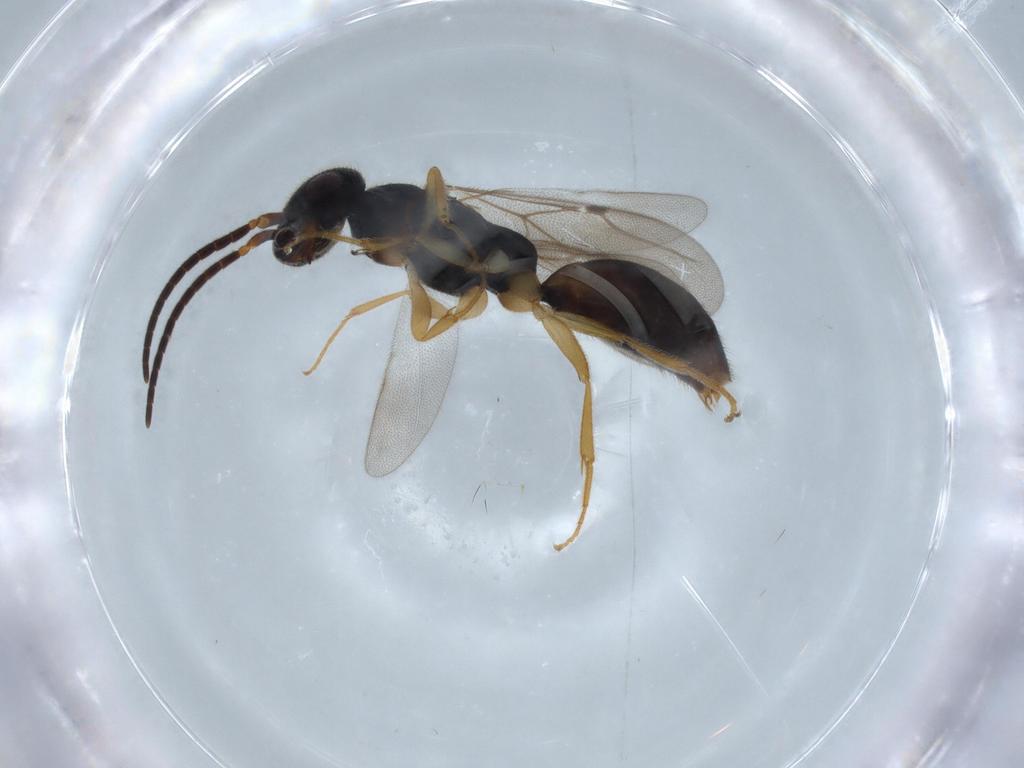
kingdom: Animalia
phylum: Arthropoda
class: Insecta
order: Hymenoptera
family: Bethylidae
